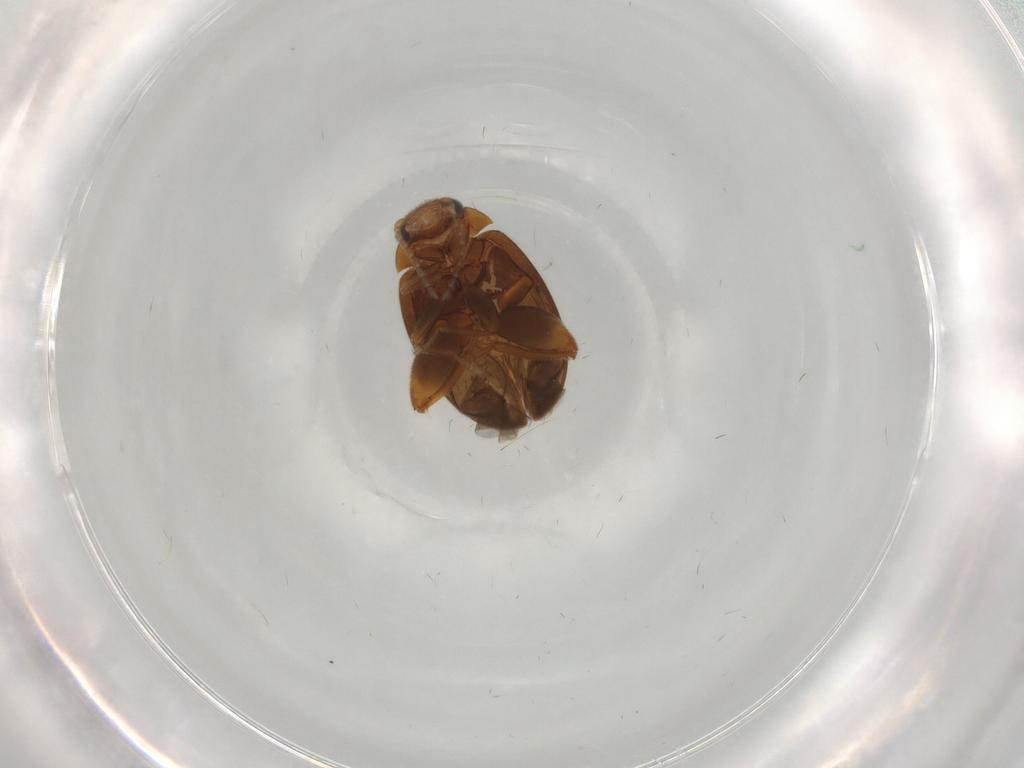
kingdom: Animalia
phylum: Arthropoda
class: Insecta
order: Coleoptera
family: Scirtidae
